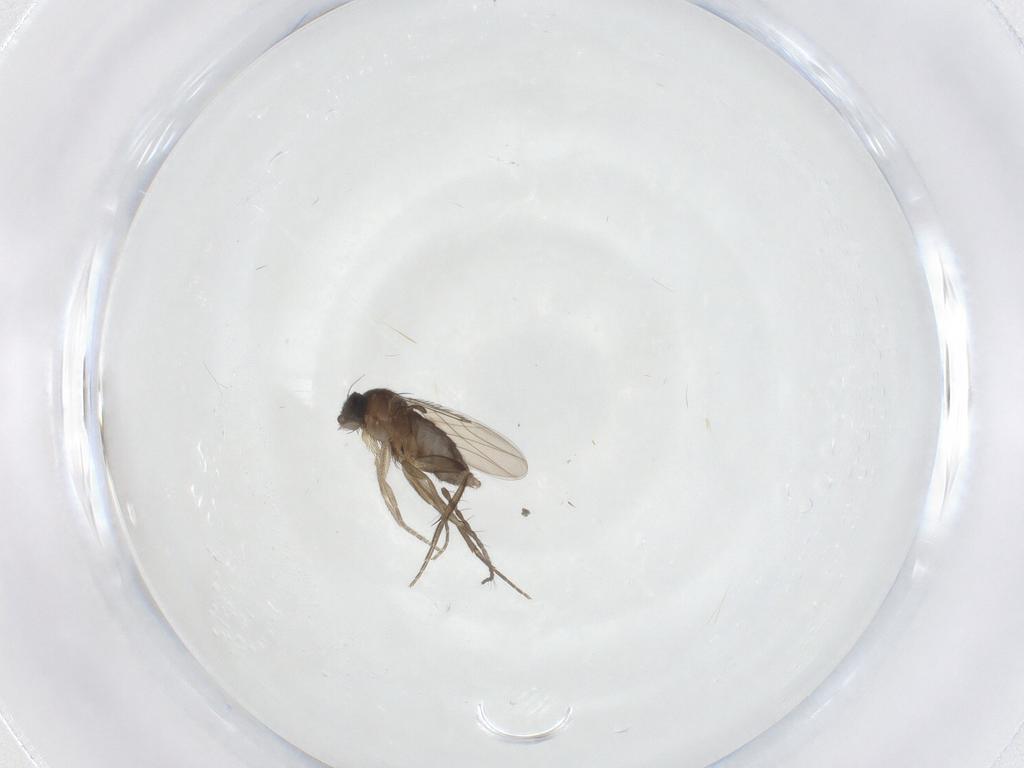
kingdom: Animalia
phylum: Arthropoda
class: Insecta
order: Diptera
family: Phoridae
